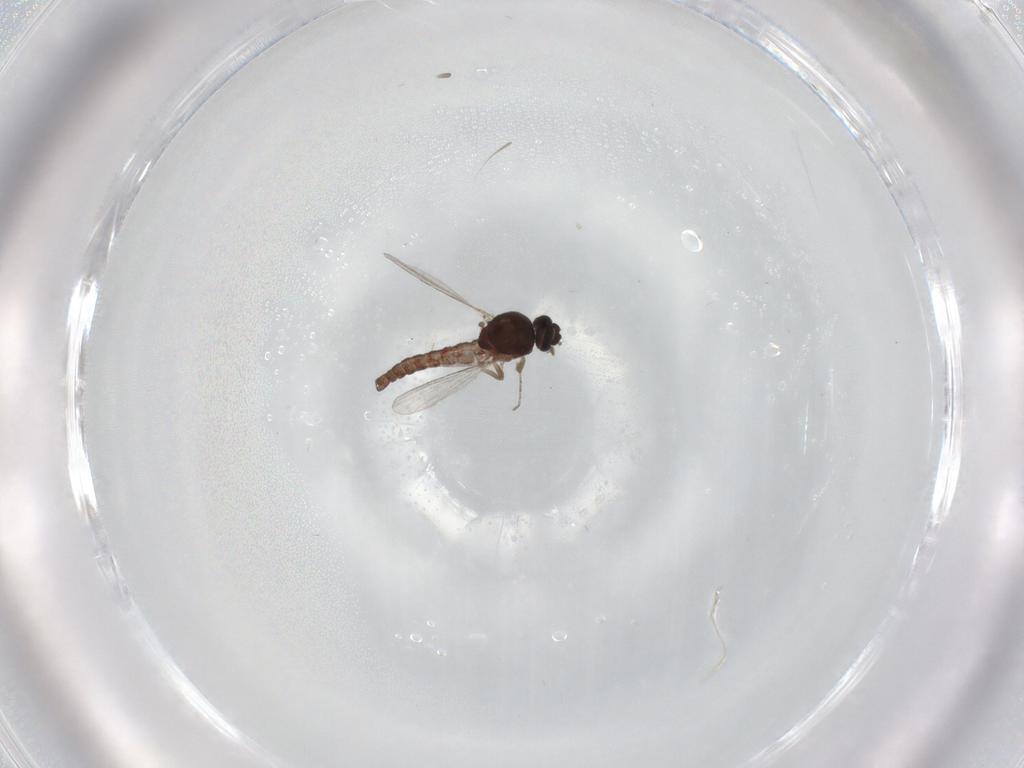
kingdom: Animalia
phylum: Arthropoda
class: Insecta
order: Diptera
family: Ceratopogonidae
